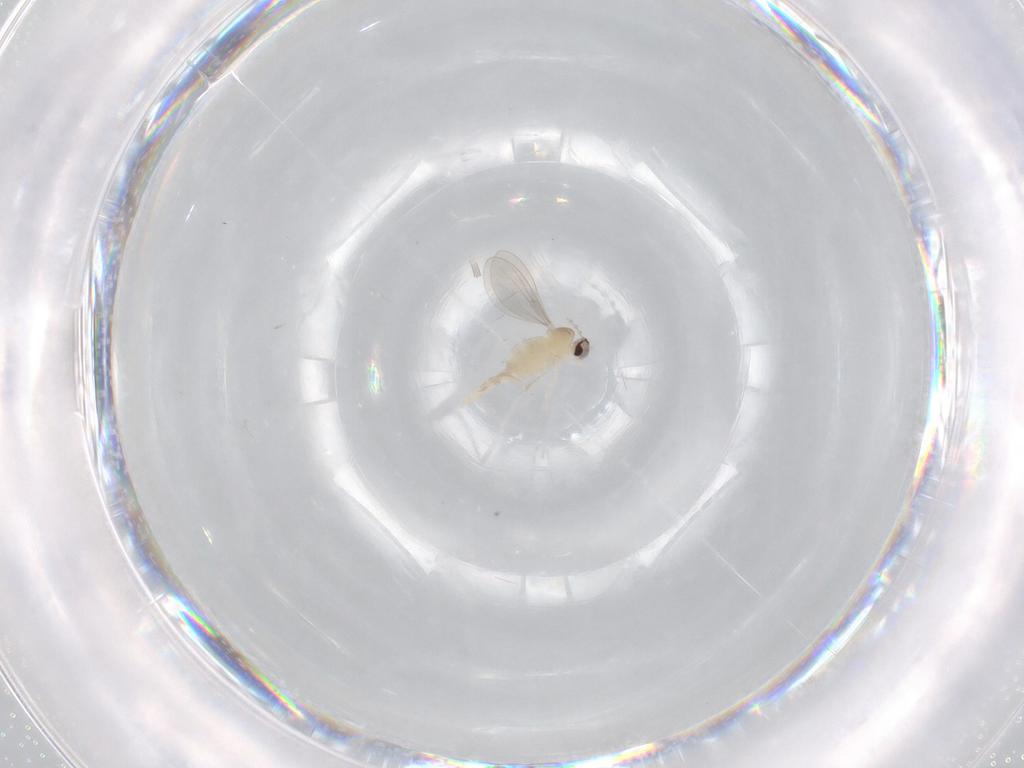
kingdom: Animalia
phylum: Arthropoda
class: Insecta
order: Diptera
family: Cecidomyiidae
